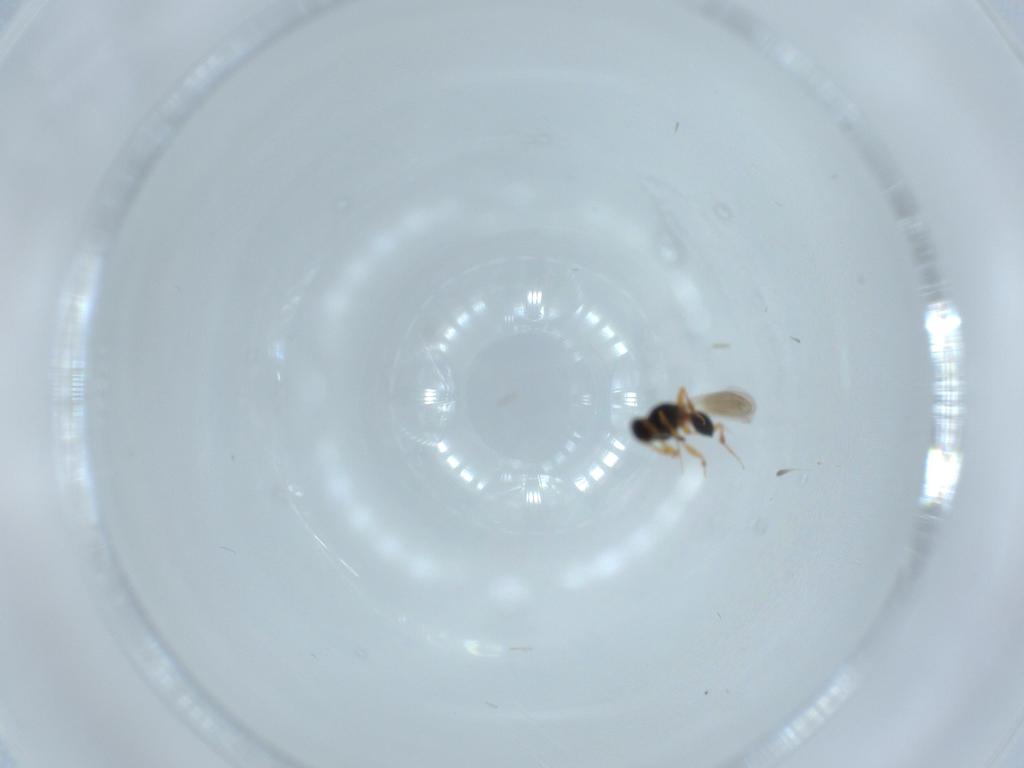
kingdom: Animalia
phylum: Arthropoda
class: Insecta
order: Hymenoptera
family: Platygastridae
